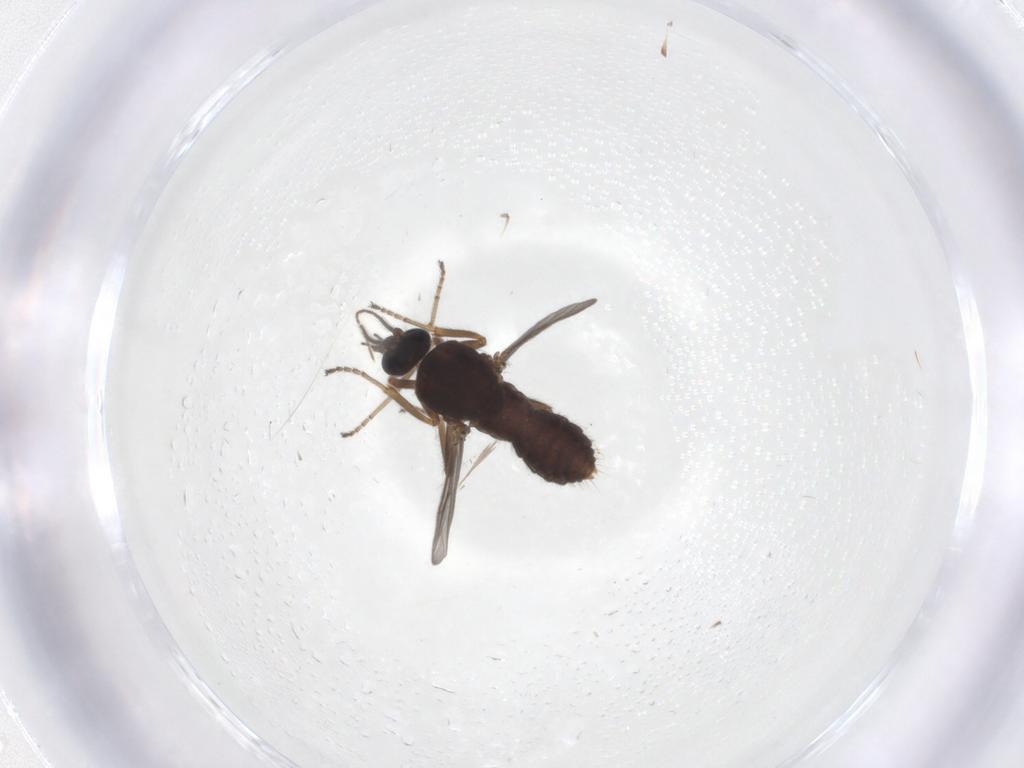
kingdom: Animalia
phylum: Arthropoda
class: Insecta
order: Diptera
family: Ceratopogonidae
